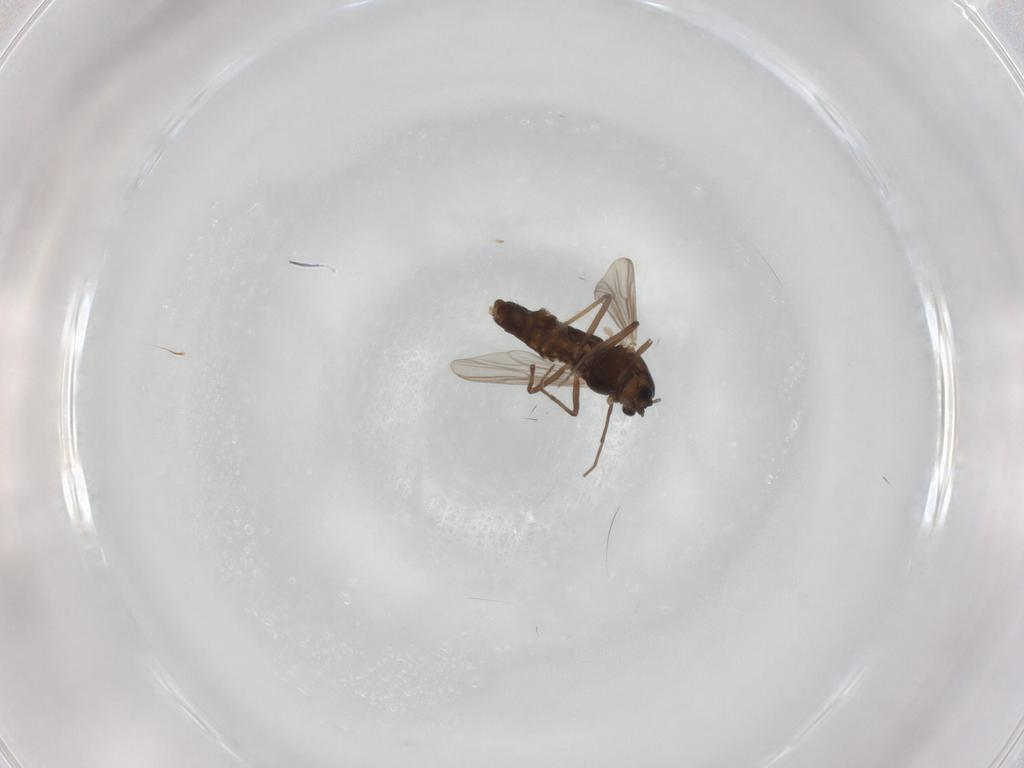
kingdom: Animalia
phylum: Arthropoda
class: Insecta
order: Diptera
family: Chironomidae
